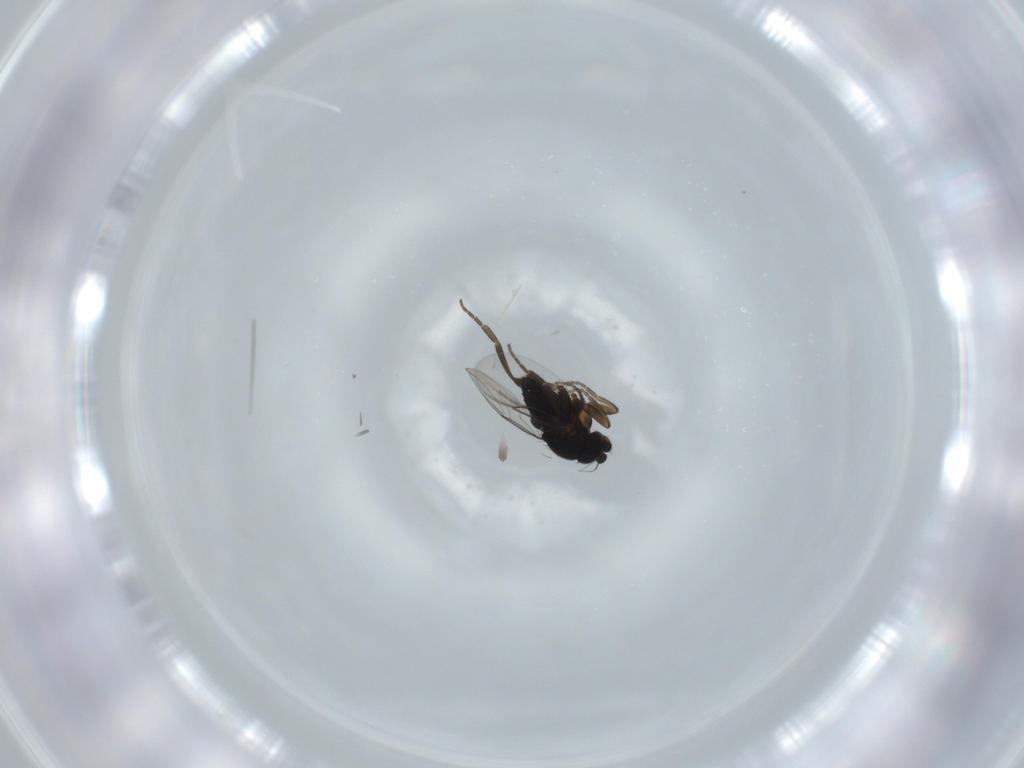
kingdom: Animalia
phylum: Arthropoda
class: Insecta
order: Diptera
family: Phoridae
